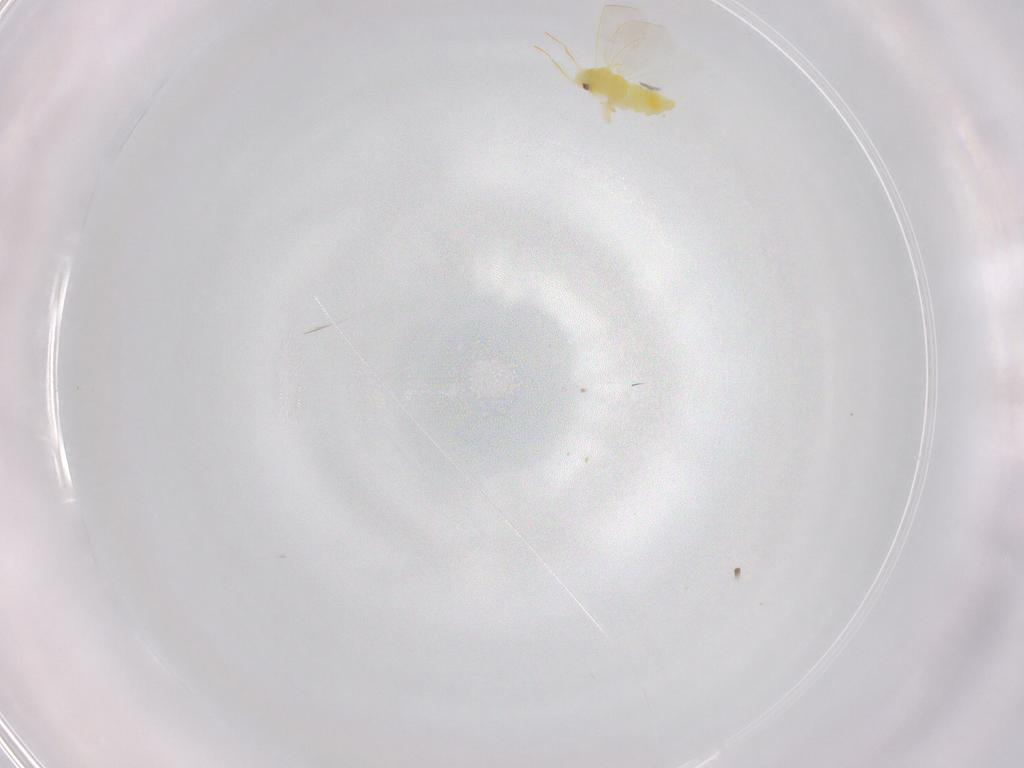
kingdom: Animalia
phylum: Arthropoda
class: Insecta
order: Hemiptera
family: Aleyrodidae
